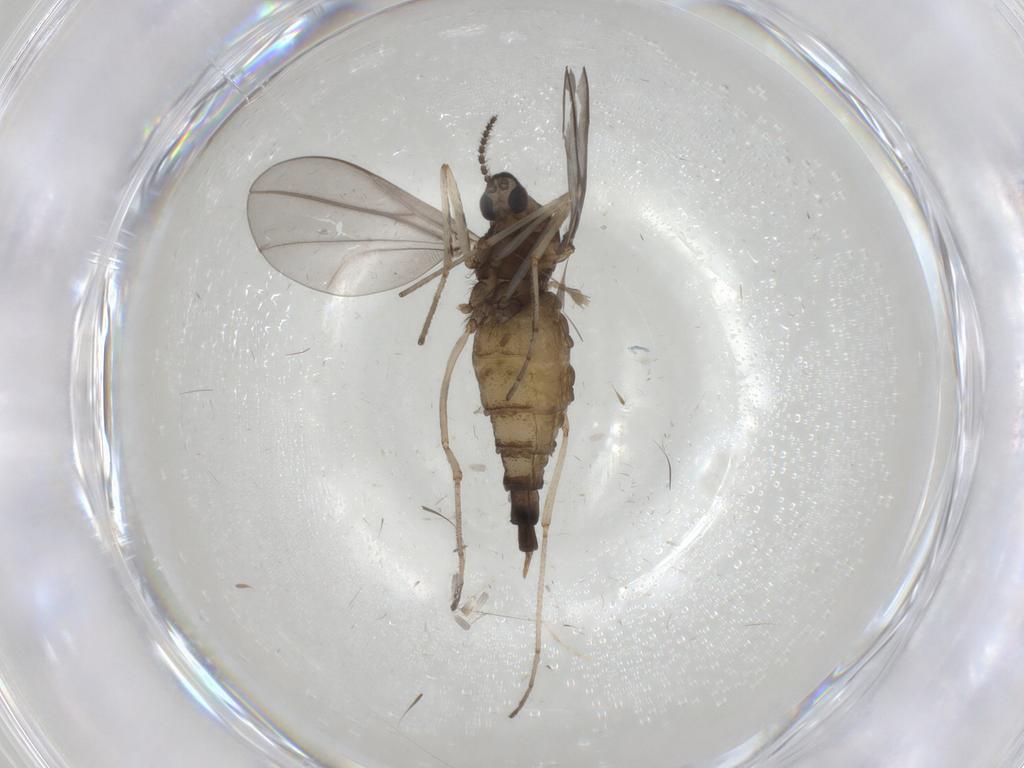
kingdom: Animalia
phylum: Arthropoda
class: Insecta
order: Diptera
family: Cecidomyiidae
